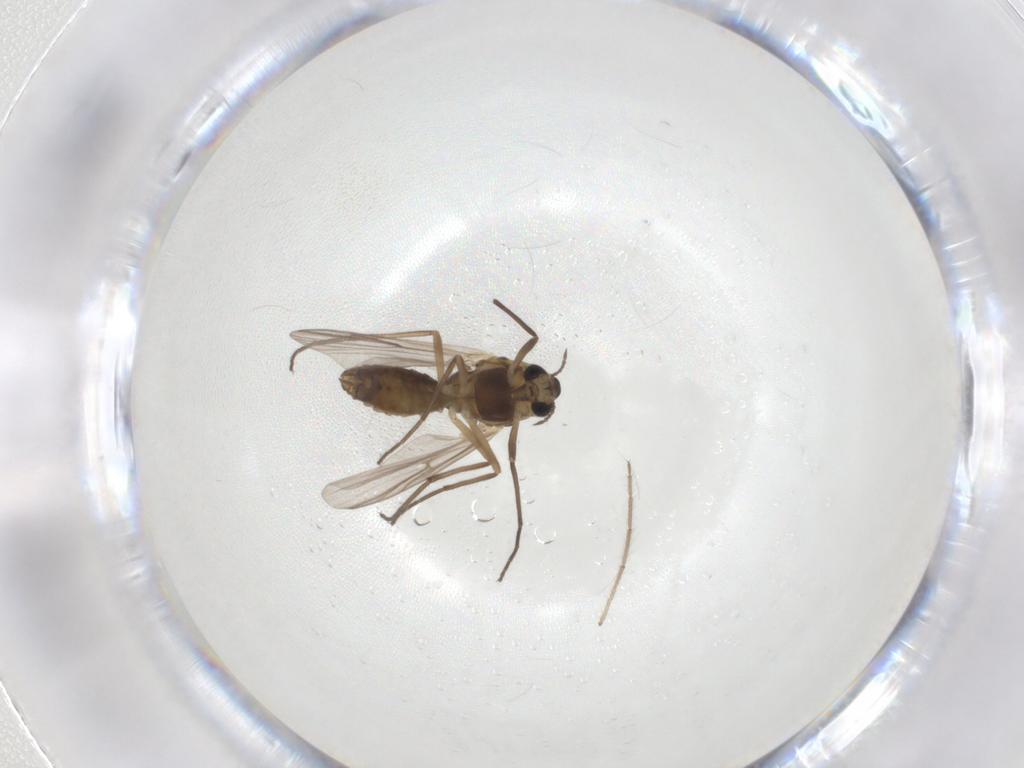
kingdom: Animalia
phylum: Arthropoda
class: Insecta
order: Diptera
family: Chironomidae
